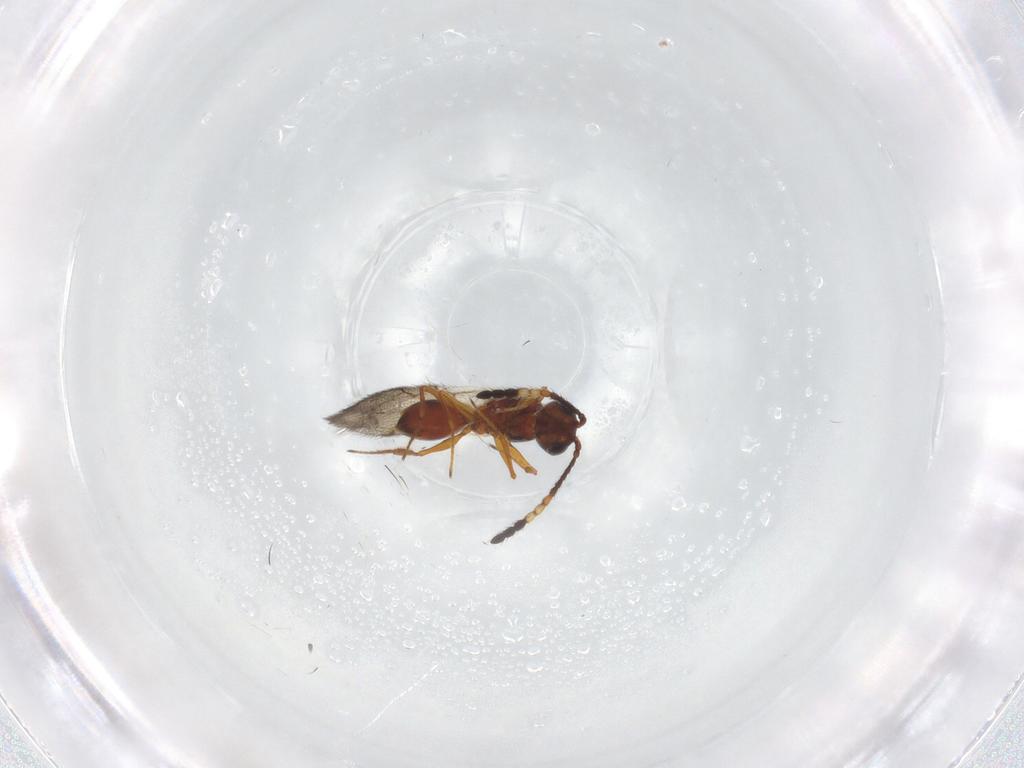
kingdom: Animalia
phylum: Arthropoda
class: Insecta
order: Hymenoptera
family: Figitidae
